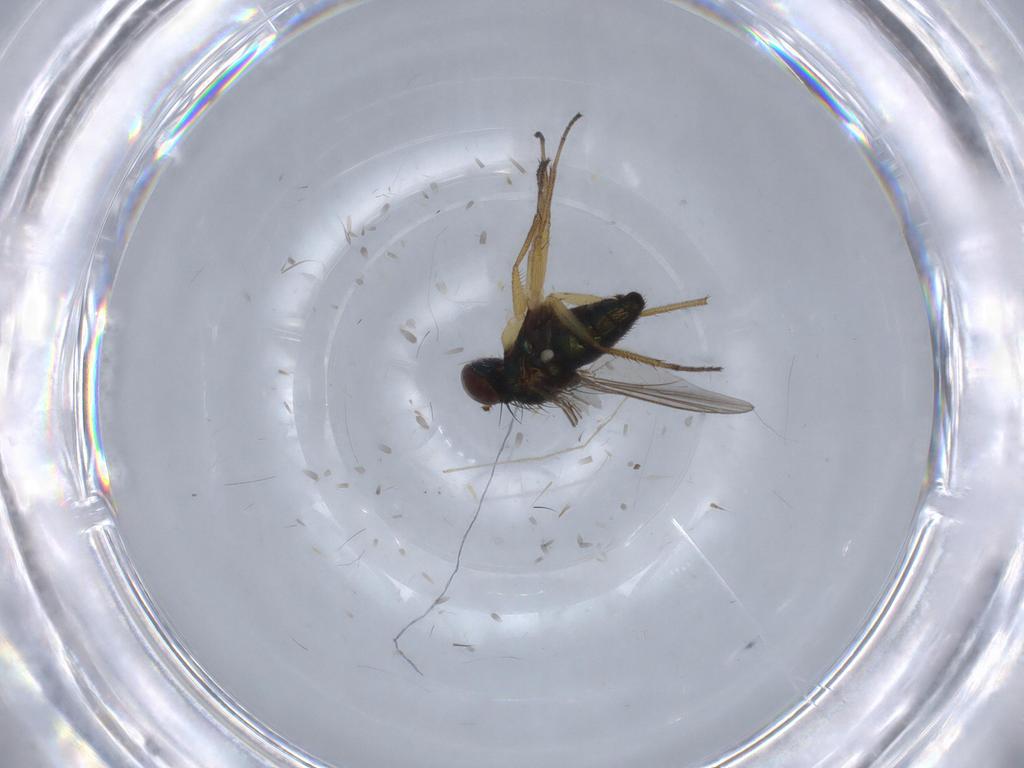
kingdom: Animalia
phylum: Arthropoda
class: Insecta
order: Diptera
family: Chironomidae
